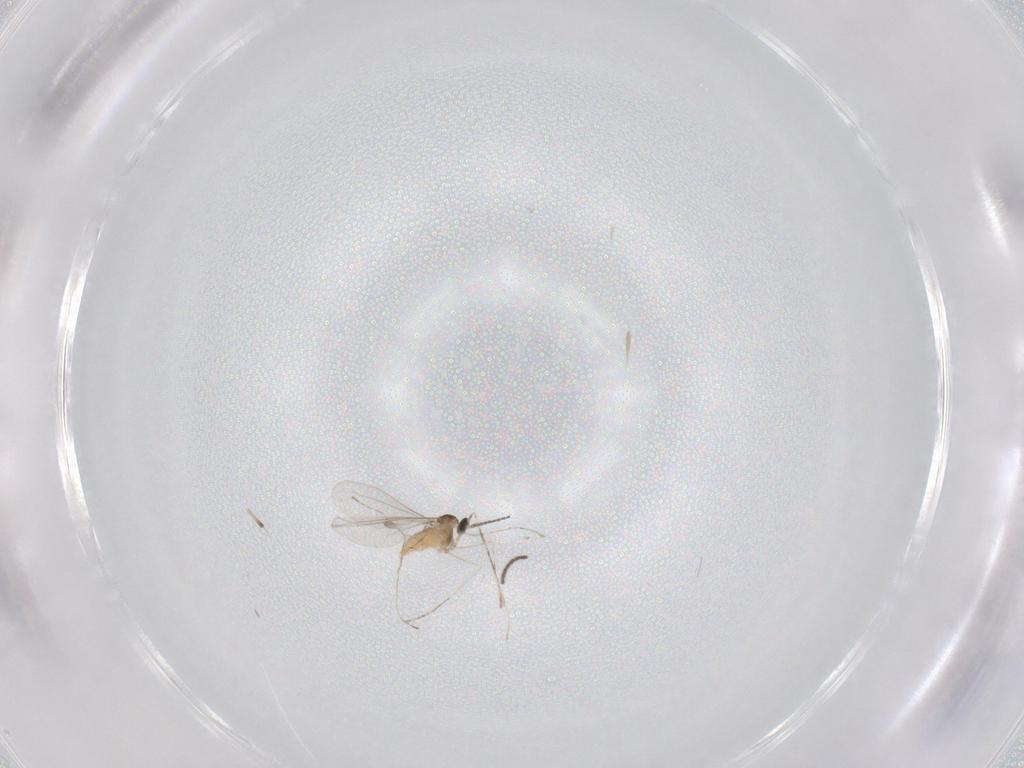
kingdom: Animalia
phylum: Arthropoda
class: Insecta
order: Diptera
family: Cecidomyiidae
